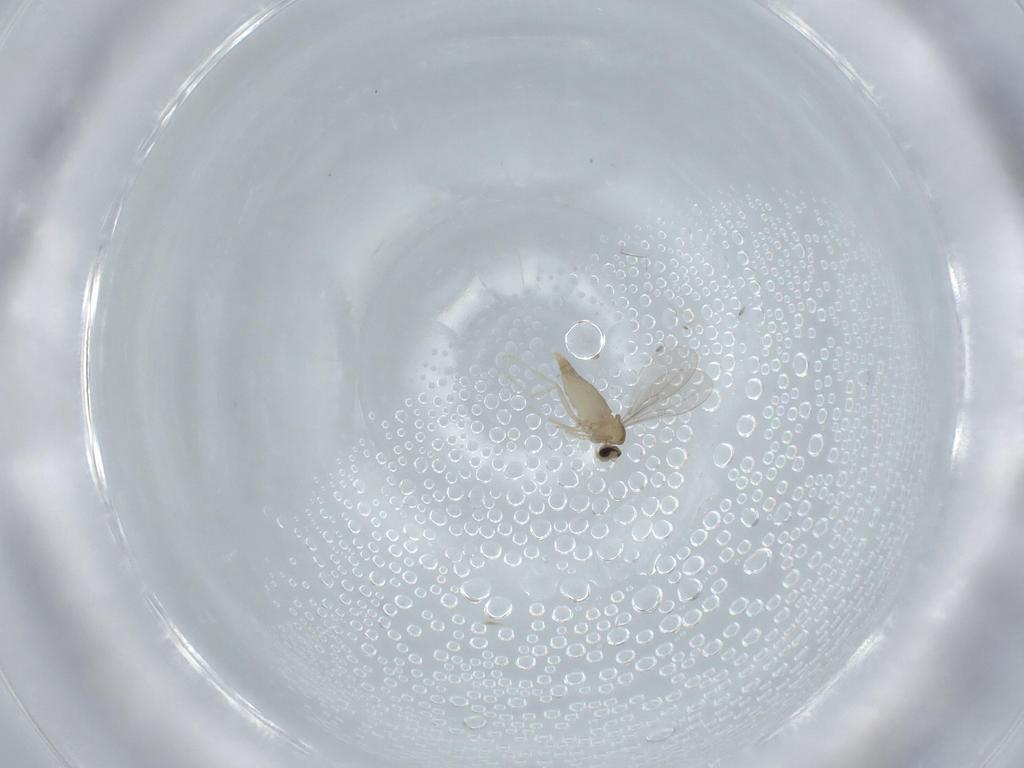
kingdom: Animalia
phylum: Arthropoda
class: Insecta
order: Diptera
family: Cecidomyiidae
